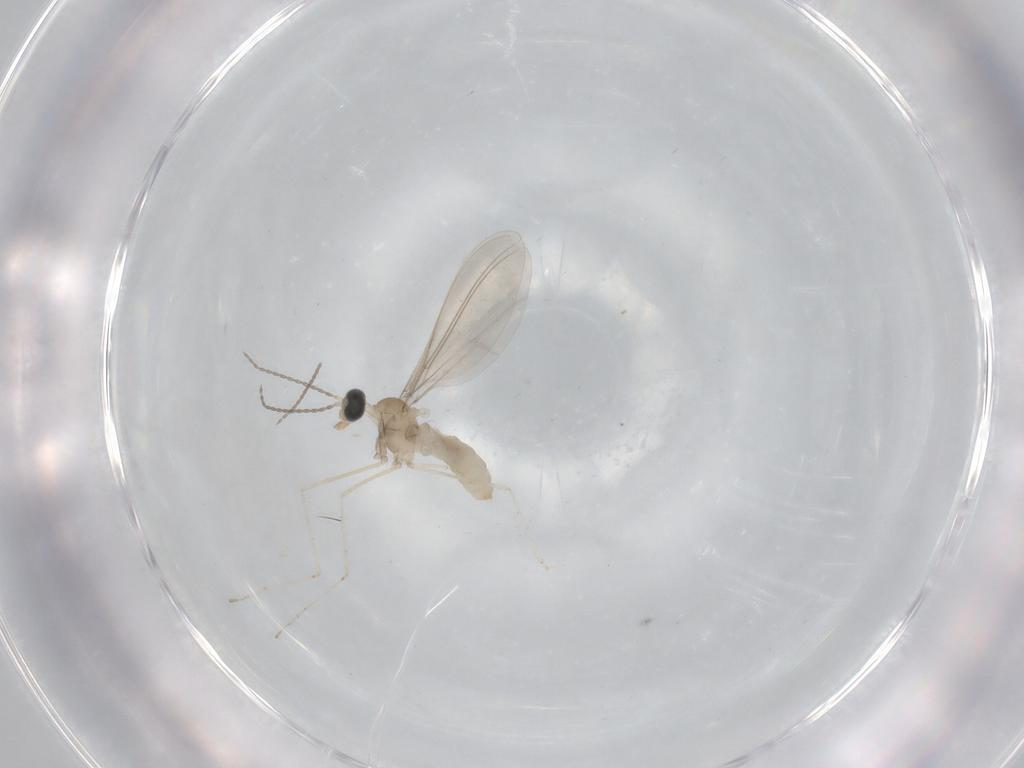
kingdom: Animalia
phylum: Arthropoda
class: Insecta
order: Diptera
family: Cecidomyiidae
